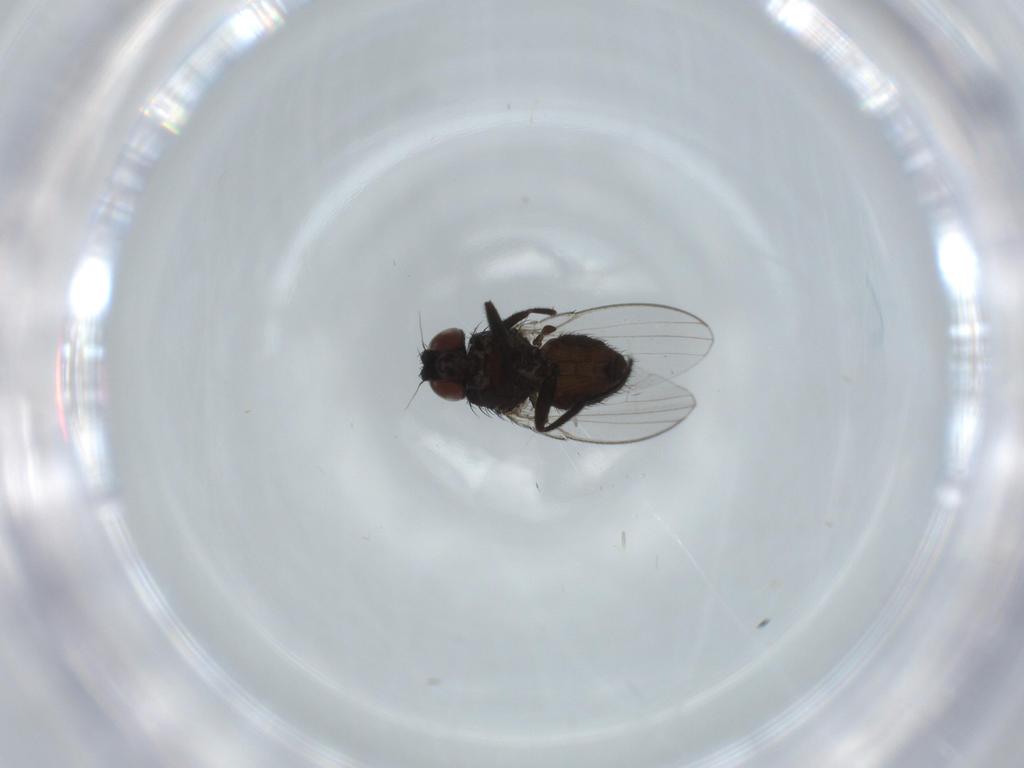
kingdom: Animalia
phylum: Arthropoda
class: Insecta
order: Diptera
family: Milichiidae
